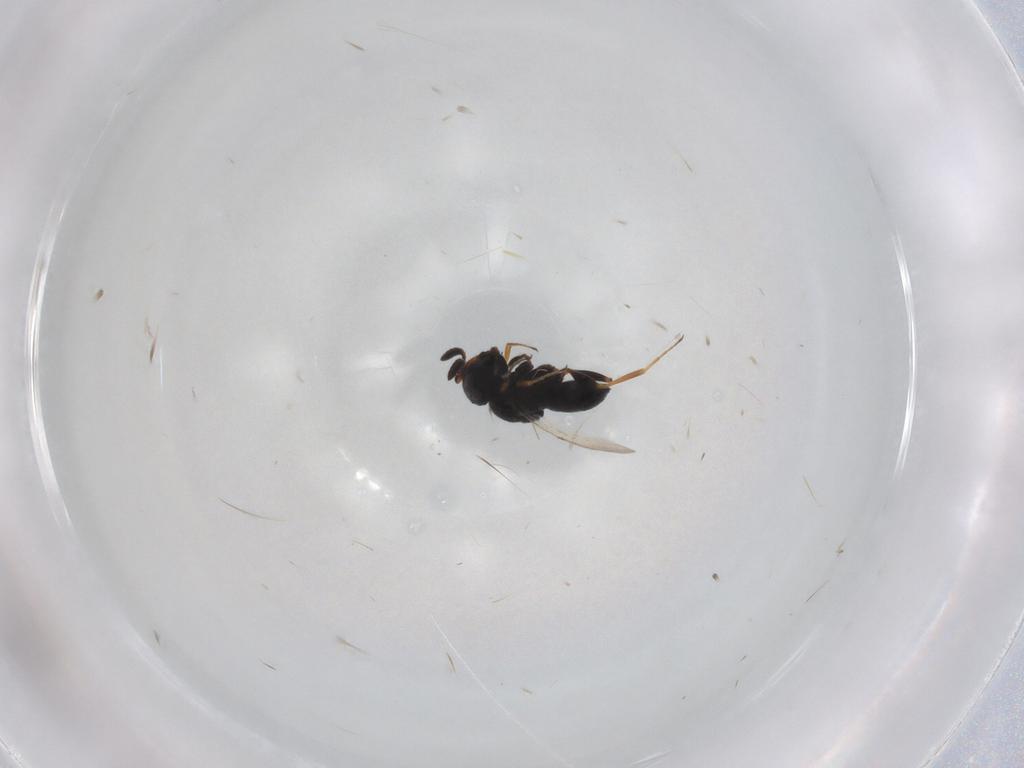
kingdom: Animalia
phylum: Arthropoda
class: Insecta
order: Coleoptera
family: Curculionidae
